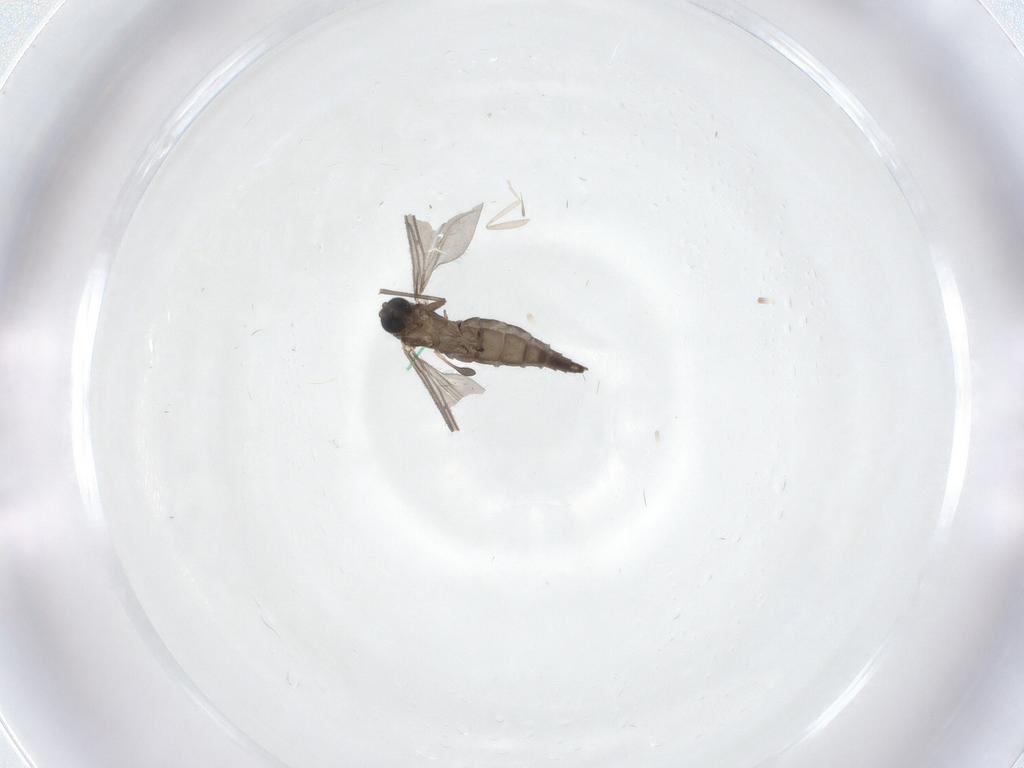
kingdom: Animalia
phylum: Arthropoda
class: Insecta
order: Diptera
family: Sciaridae
